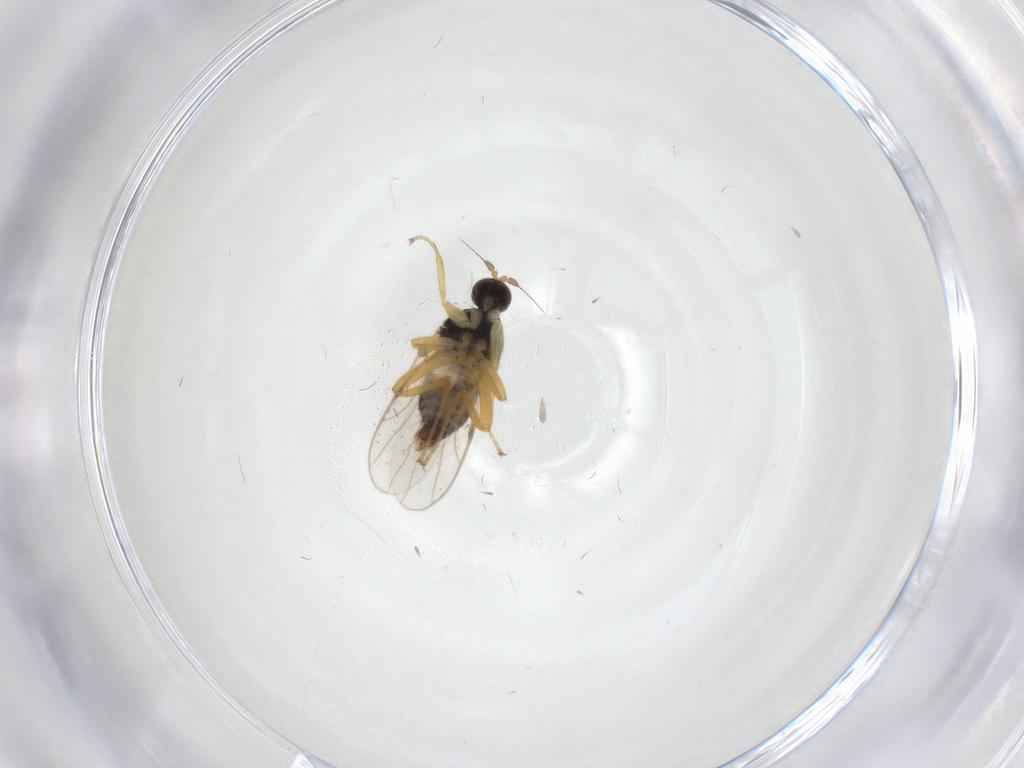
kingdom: Animalia
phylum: Arthropoda
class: Insecta
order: Diptera
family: Hybotidae
